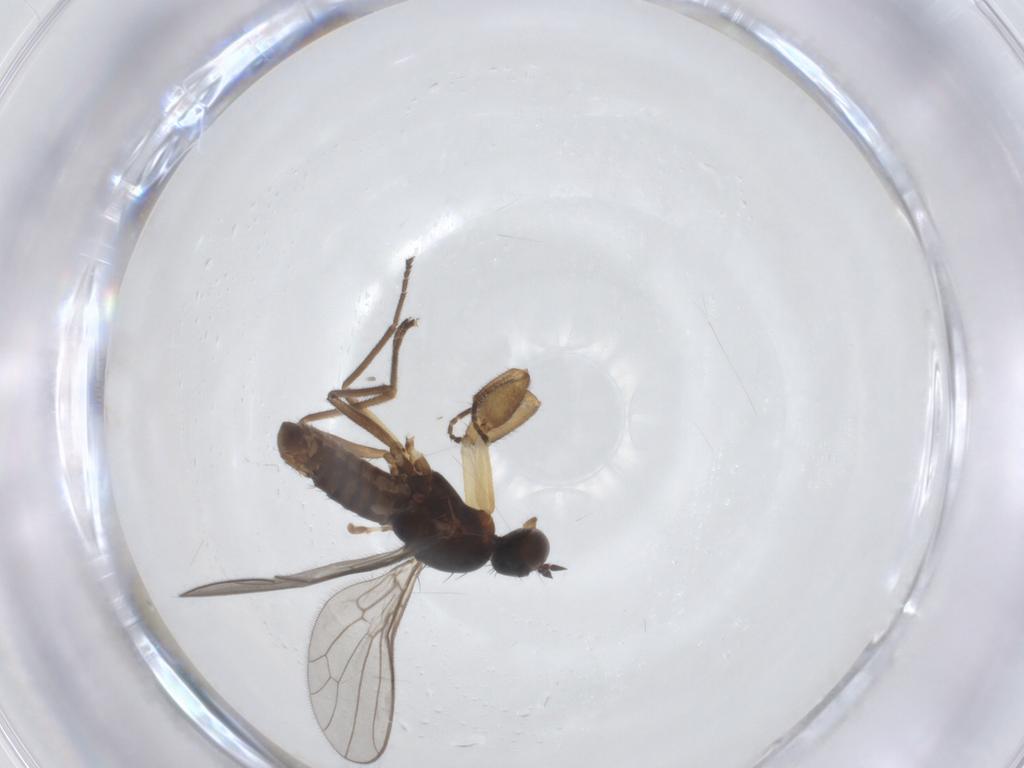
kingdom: Animalia
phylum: Arthropoda
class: Insecta
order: Diptera
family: Empididae
